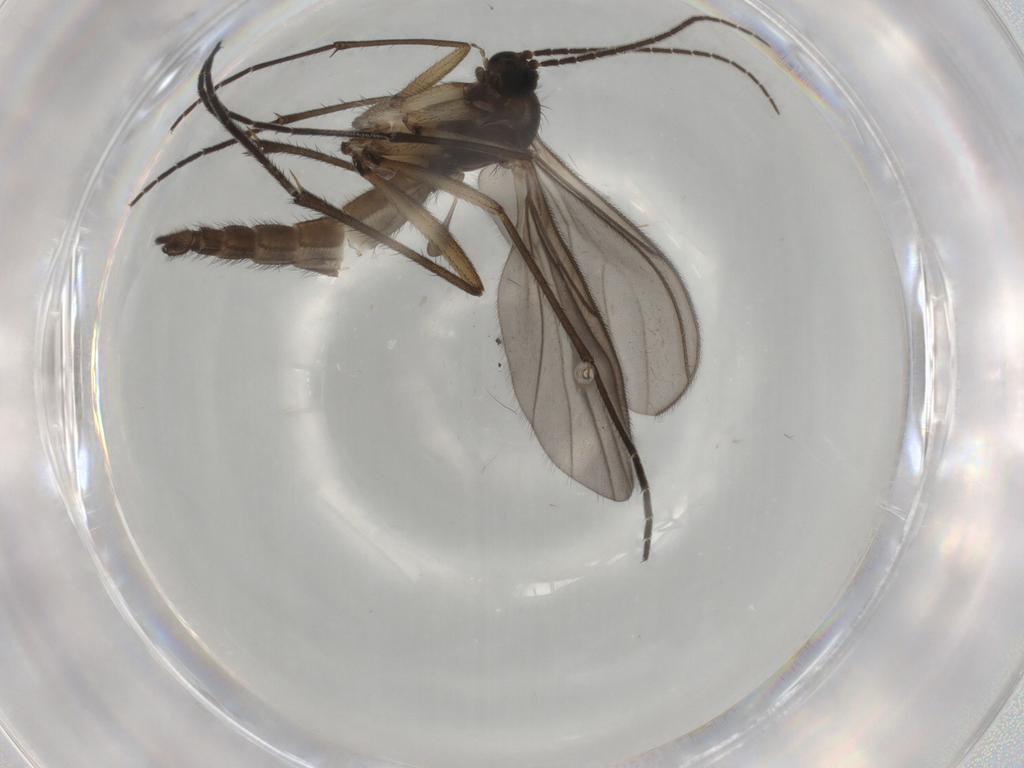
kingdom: Animalia
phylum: Arthropoda
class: Insecta
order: Diptera
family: Sciaridae
